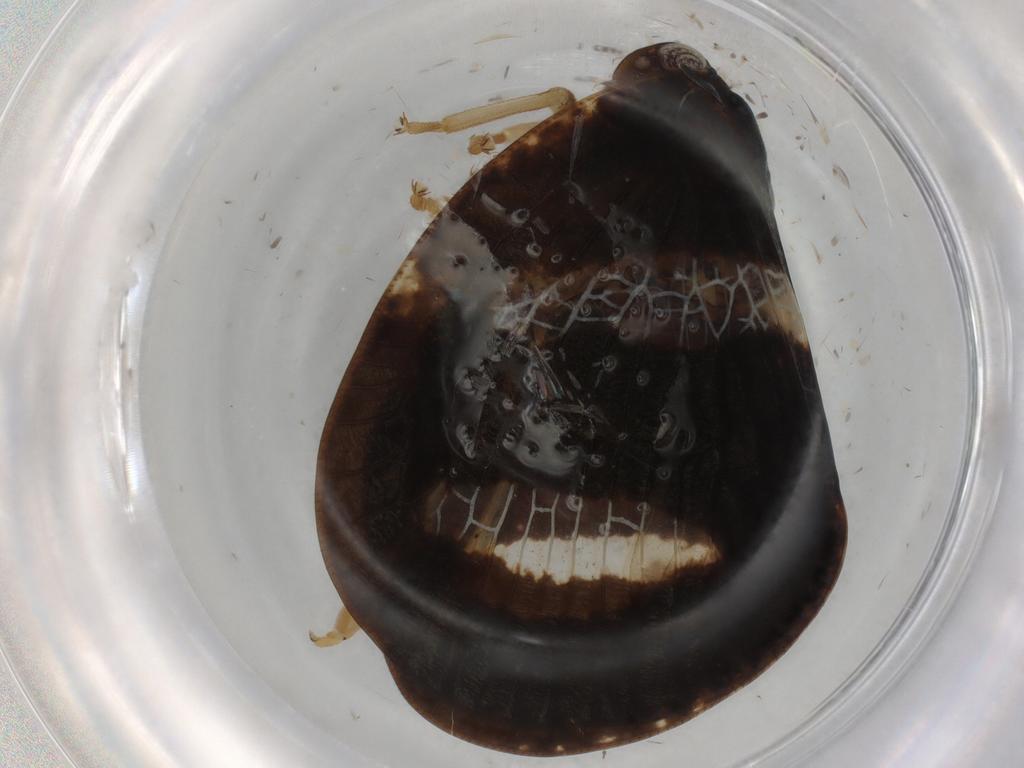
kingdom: Animalia
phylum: Arthropoda
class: Insecta
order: Hemiptera
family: Ricaniidae
